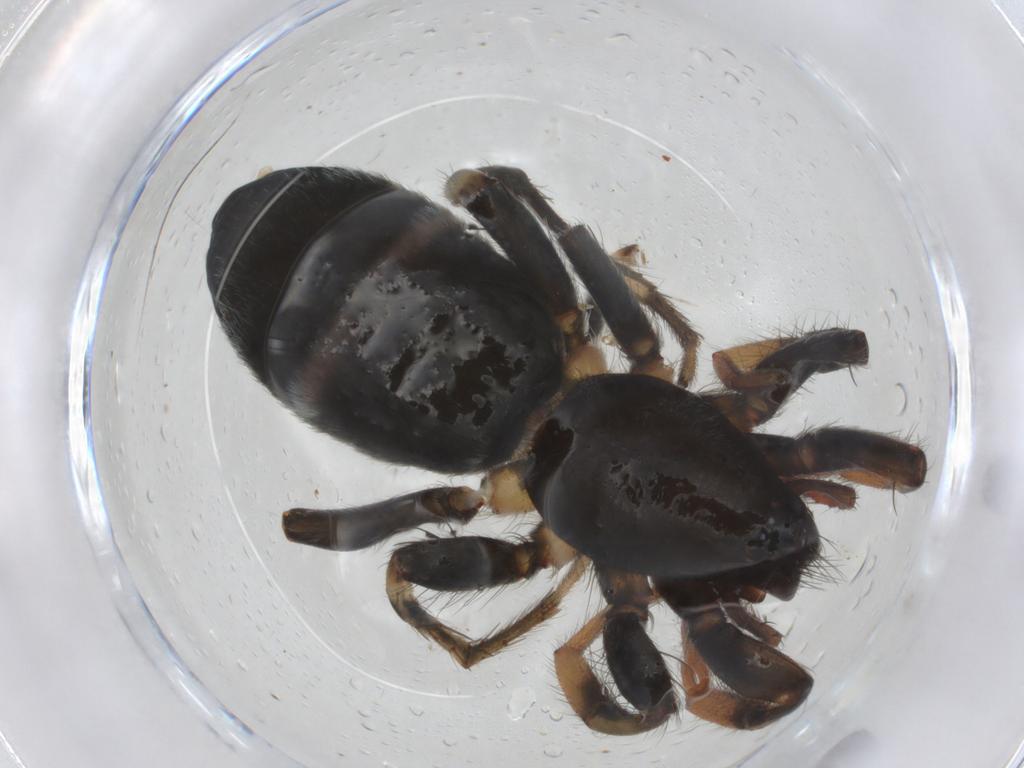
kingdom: Animalia
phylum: Arthropoda
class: Arachnida
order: Araneae
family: Gnaphosidae
